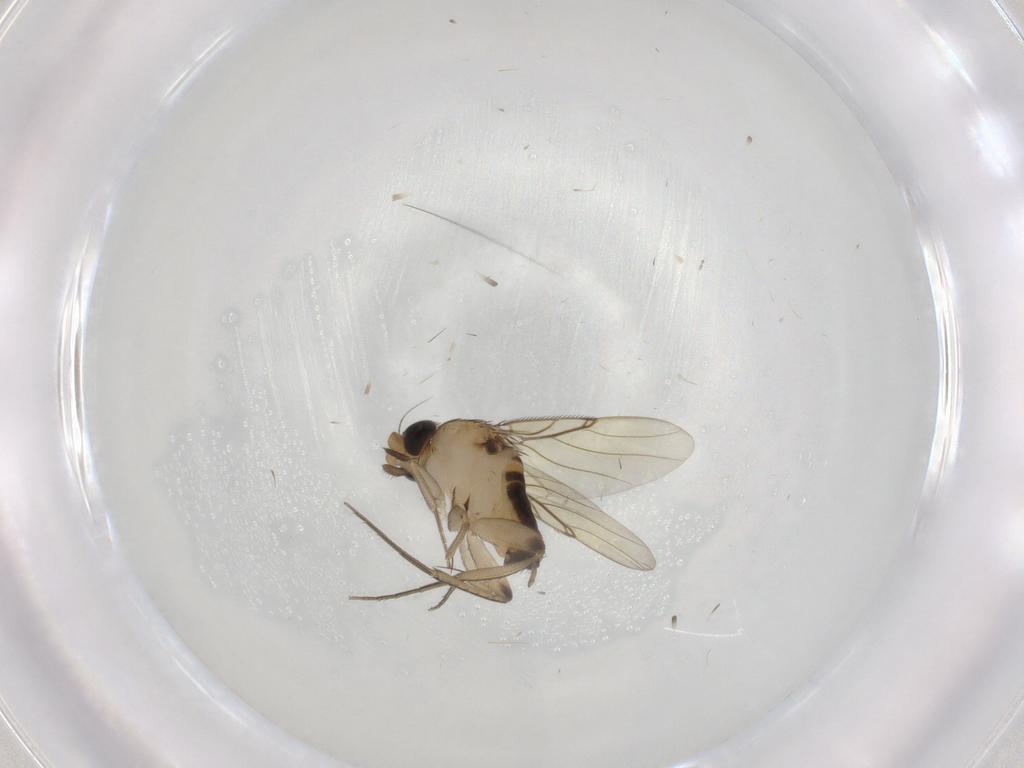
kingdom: Animalia
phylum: Arthropoda
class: Insecta
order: Diptera
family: Phoridae
